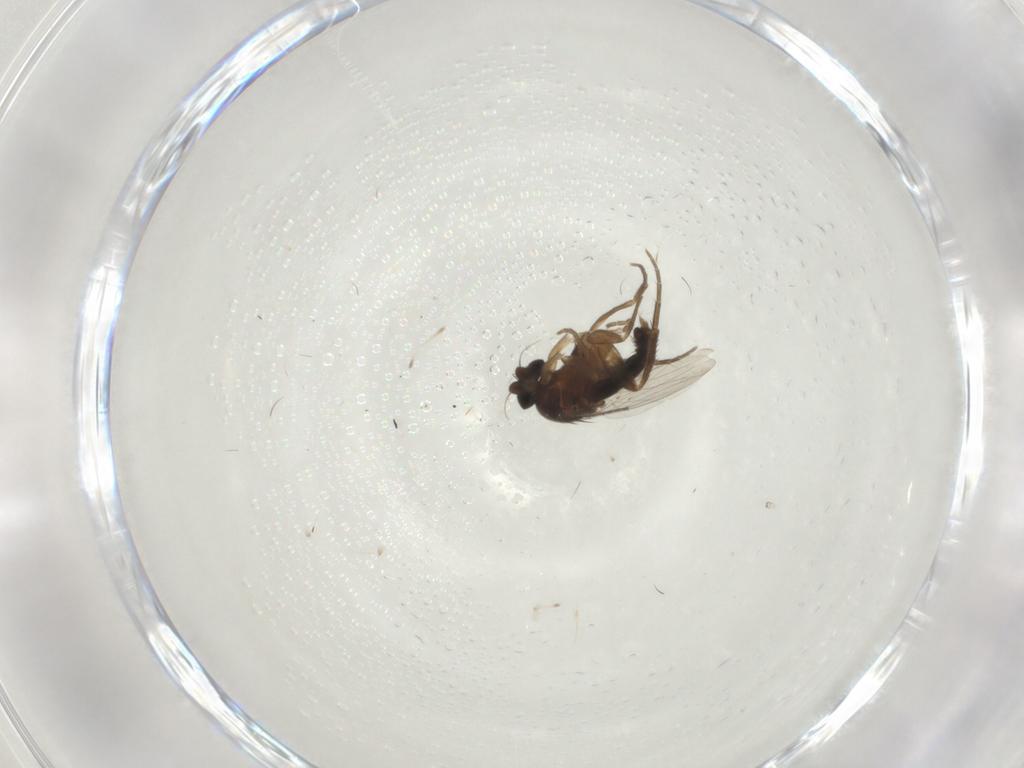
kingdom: Animalia
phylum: Arthropoda
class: Insecta
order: Diptera
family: Phoridae
